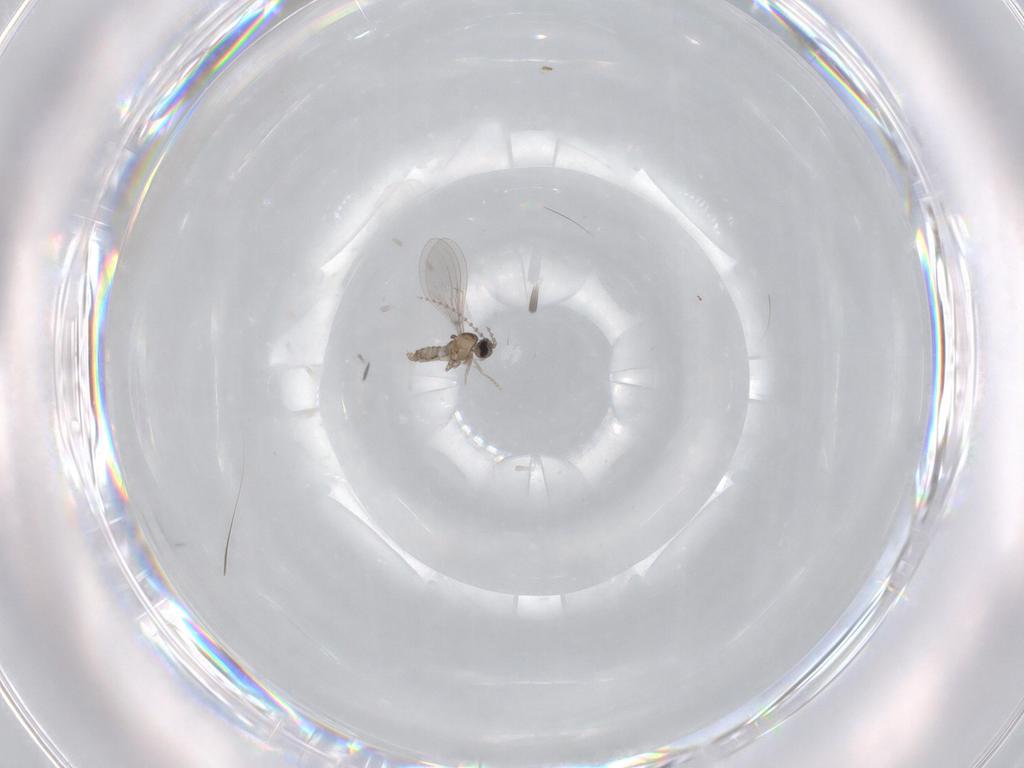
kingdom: Animalia
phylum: Arthropoda
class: Insecta
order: Diptera
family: Cecidomyiidae
